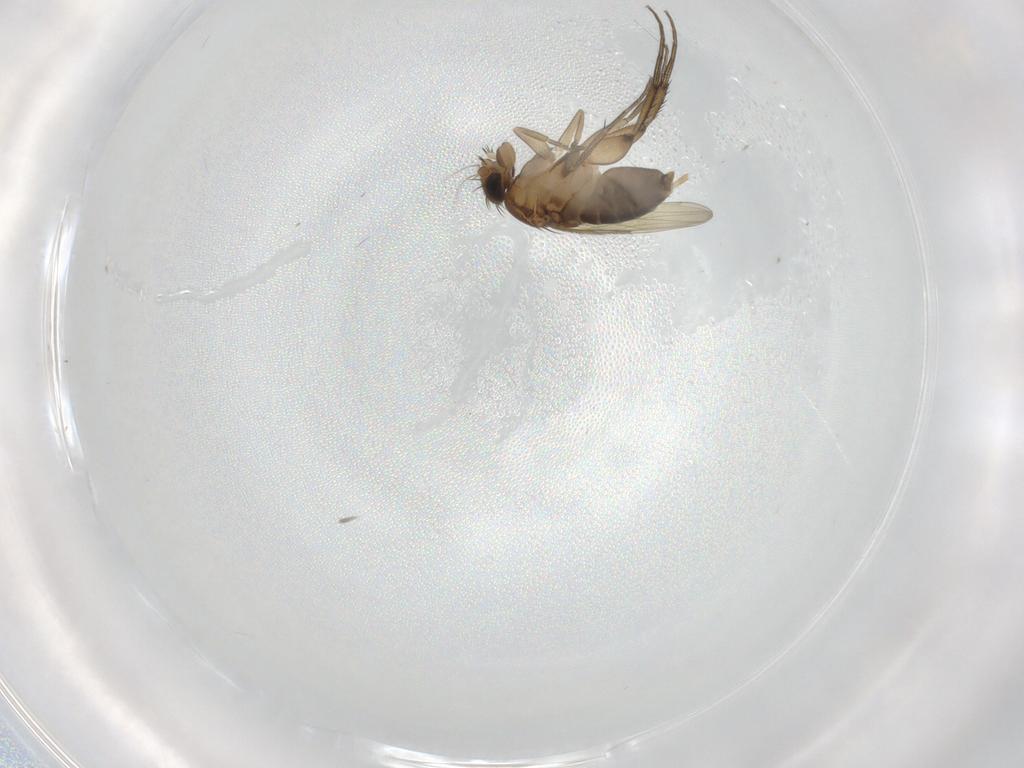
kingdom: Animalia
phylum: Arthropoda
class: Insecta
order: Diptera
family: Phoridae
